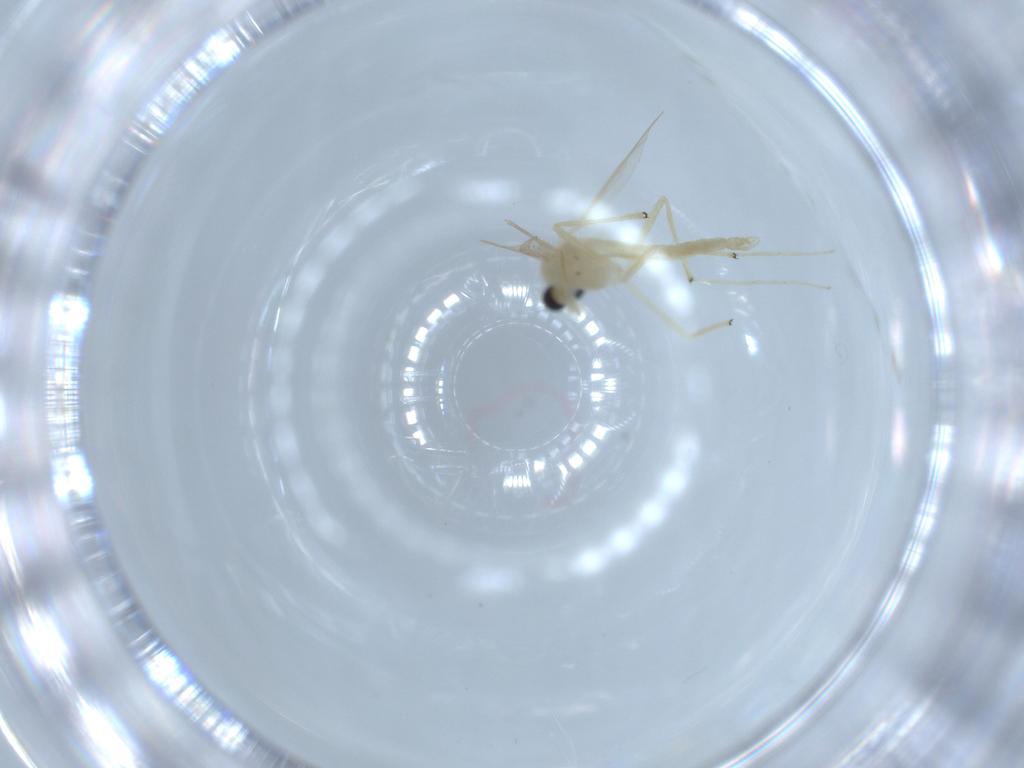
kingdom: Animalia
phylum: Arthropoda
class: Insecta
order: Diptera
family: Chironomidae
